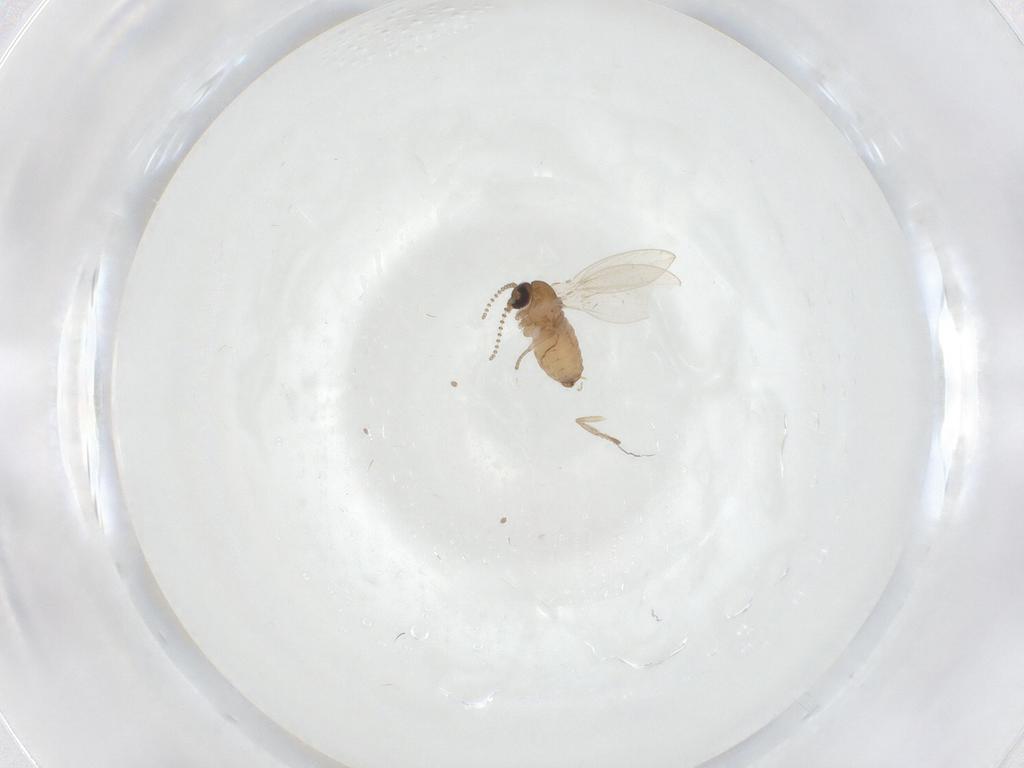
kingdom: Animalia
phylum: Arthropoda
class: Insecta
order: Diptera
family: Psychodidae
